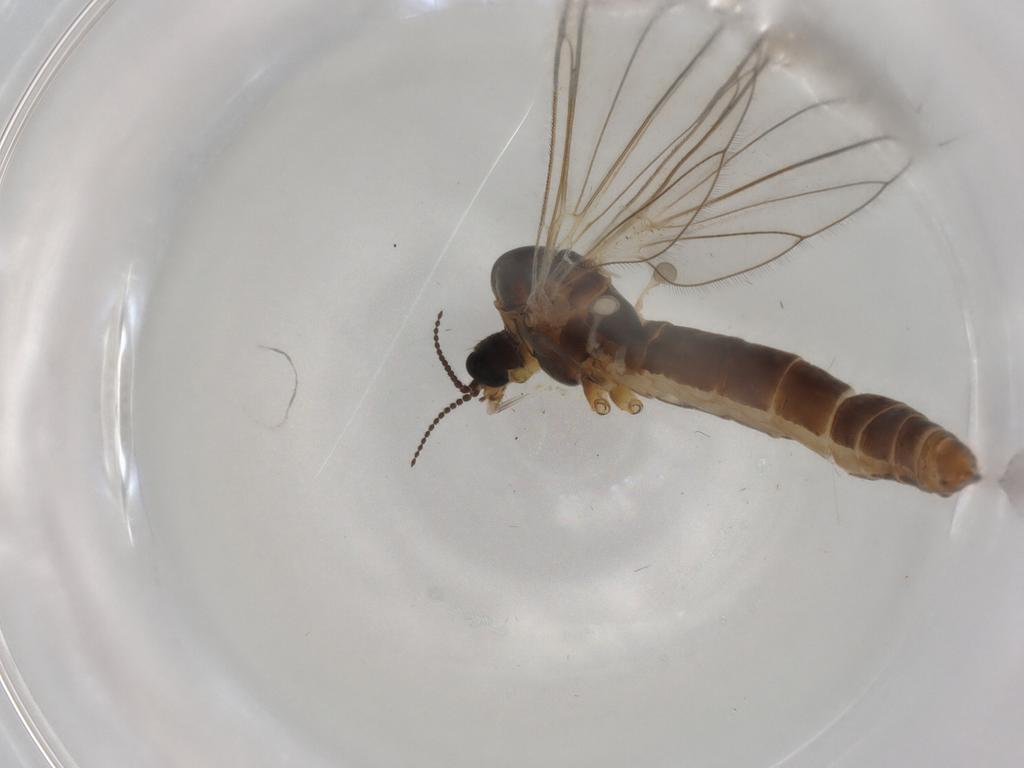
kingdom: Animalia
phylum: Arthropoda
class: Insecta
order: Diptera
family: Limoniidae
